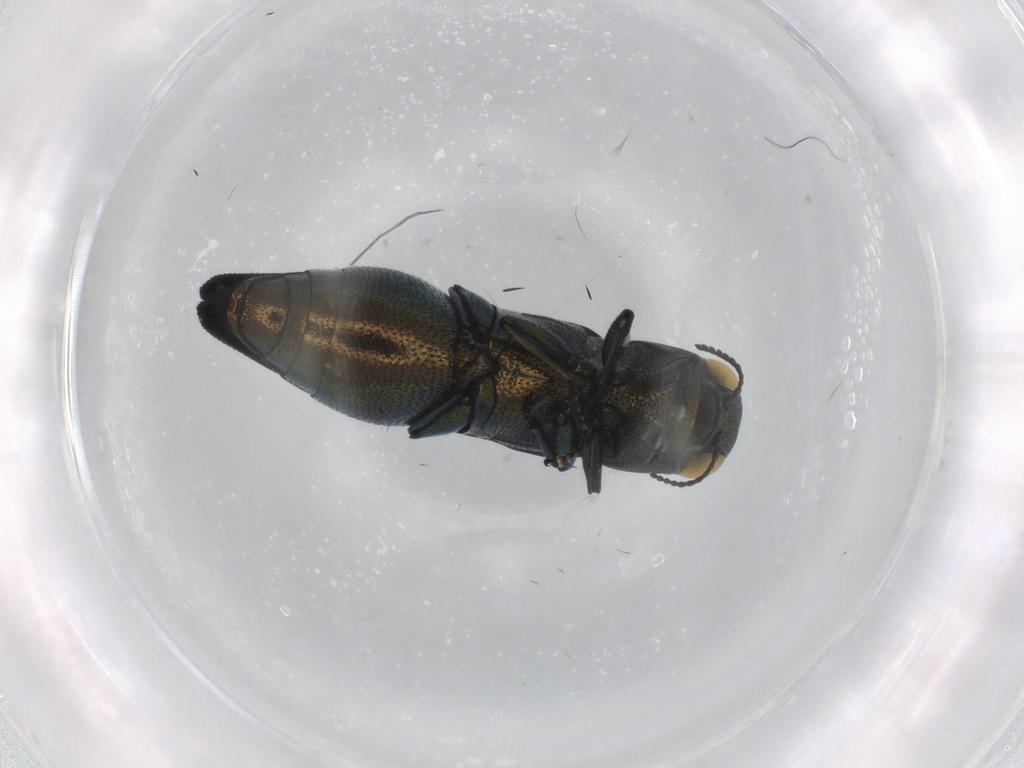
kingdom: Animalia
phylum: Arthropoda
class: Insecta
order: Coleoptera
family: Buprestidae
